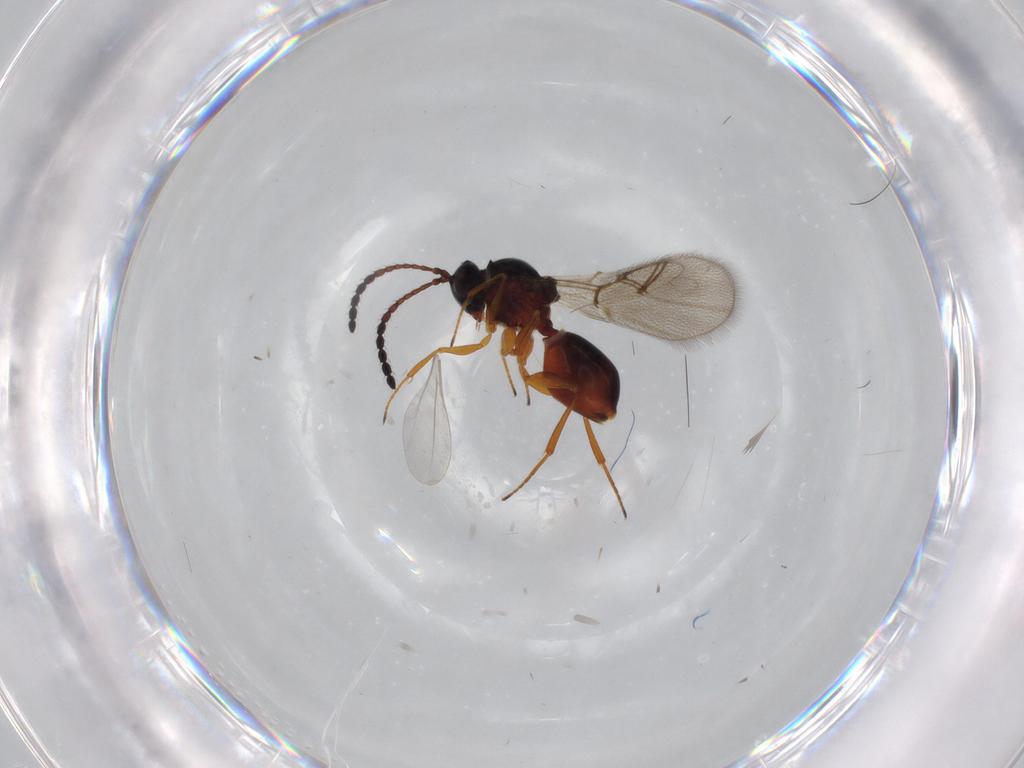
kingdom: Animalia
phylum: Arthropoda
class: Insecta
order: Hymenoptera
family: Figitidae
